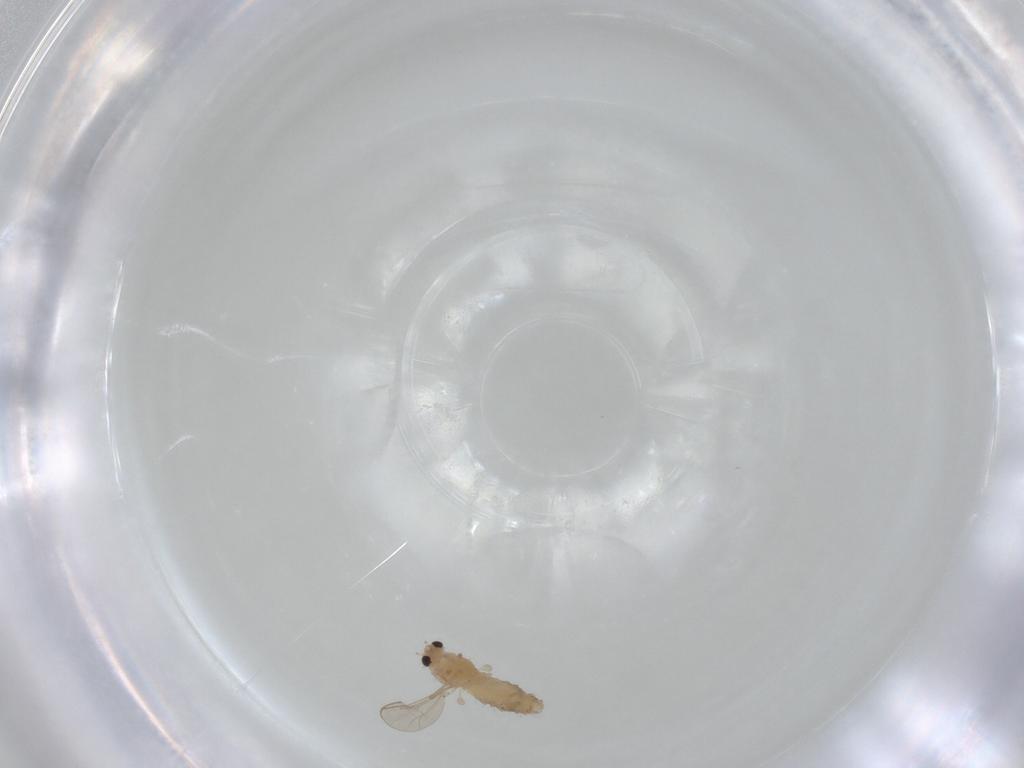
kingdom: Animalia
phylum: Arthropoda
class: Insecta
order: Diptera
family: Chironomidae
